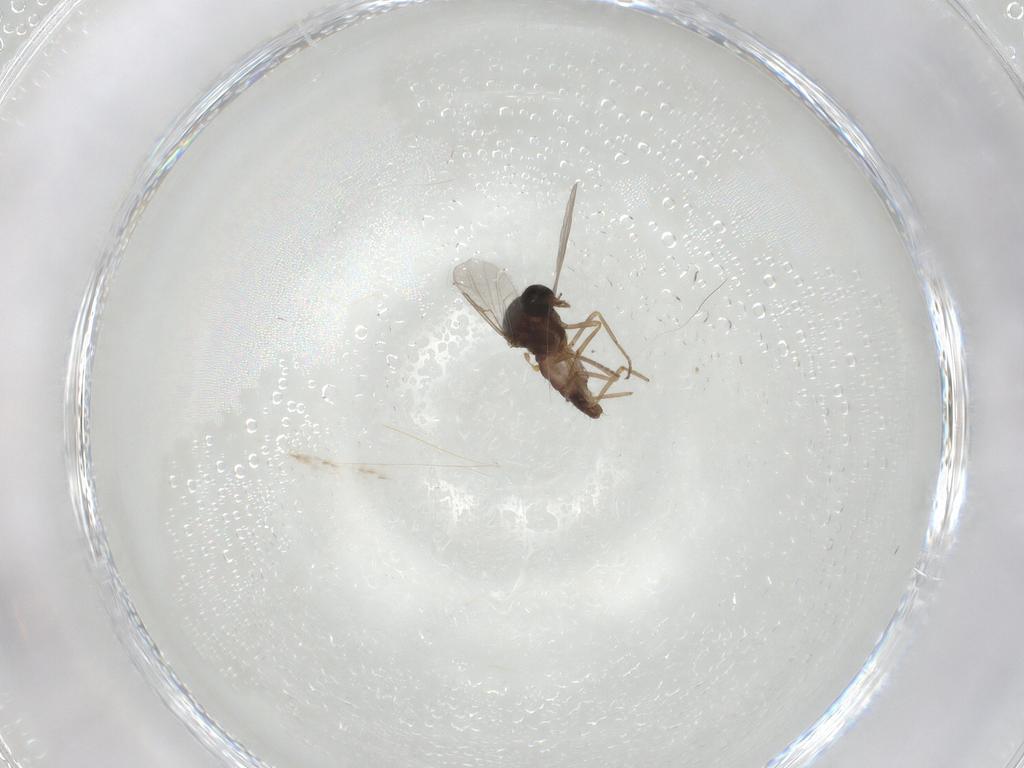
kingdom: Animalia
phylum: Arthropoda
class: Insecta
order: Diptera
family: Ceratopogonidae
